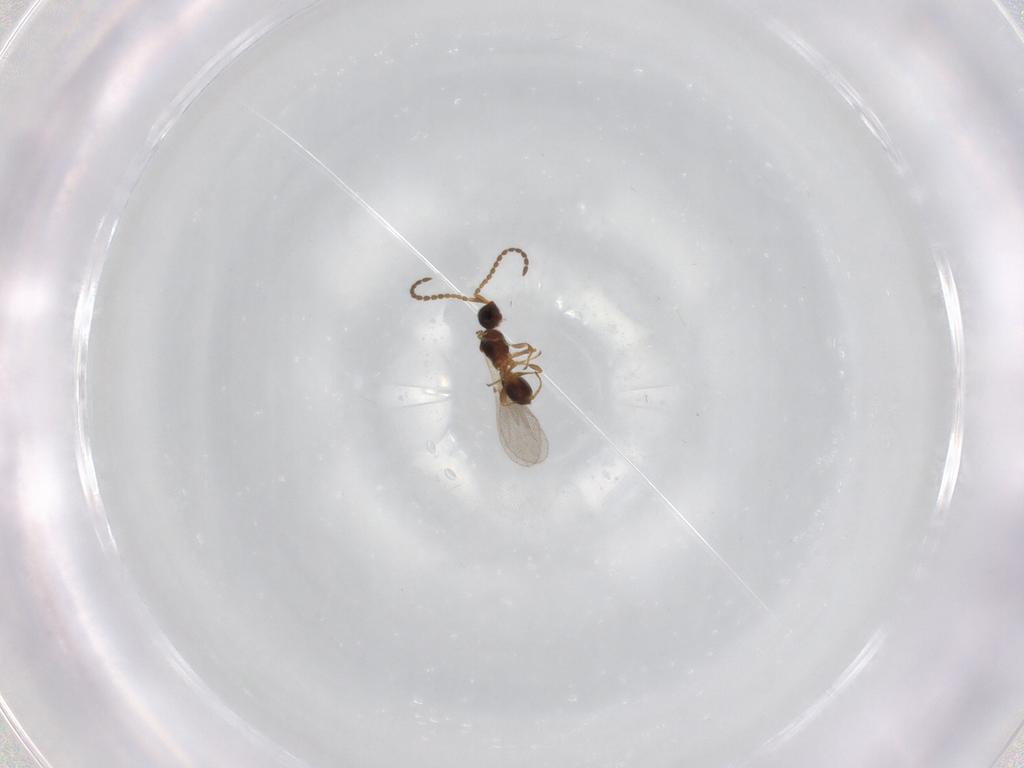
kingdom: Animalia
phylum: Arthropoda
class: Insecta
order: Hymenoptera
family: Diapriidae
